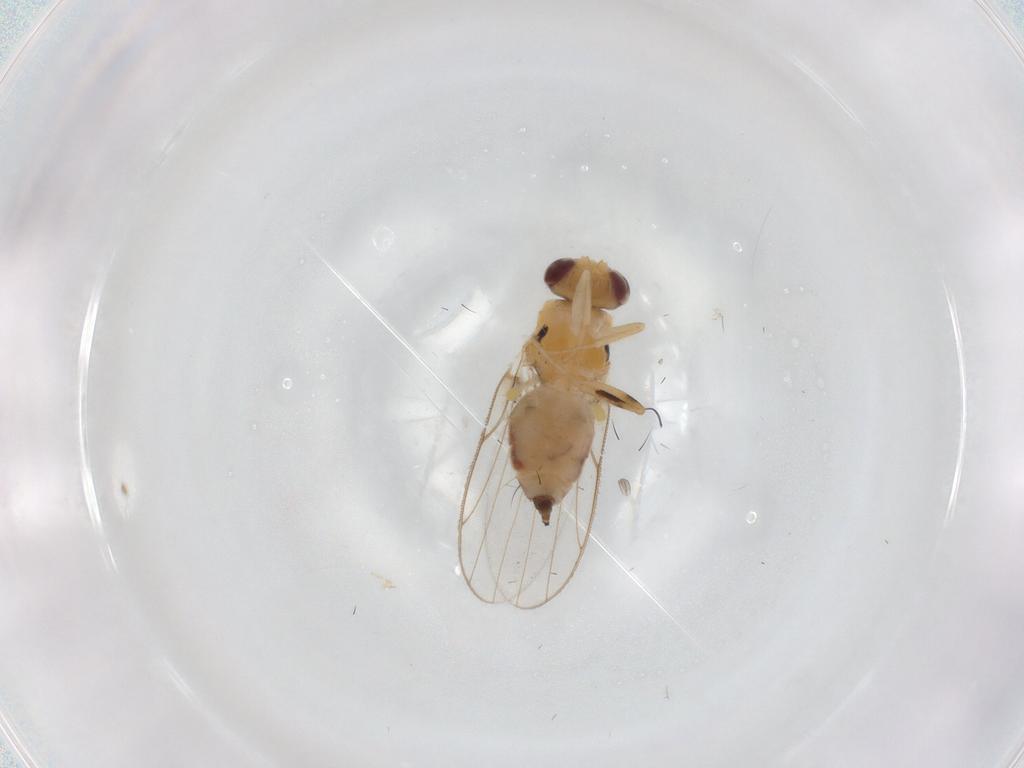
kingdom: Animalia
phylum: Arthropoda
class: Insecta
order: Diptera
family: Chloropidae
